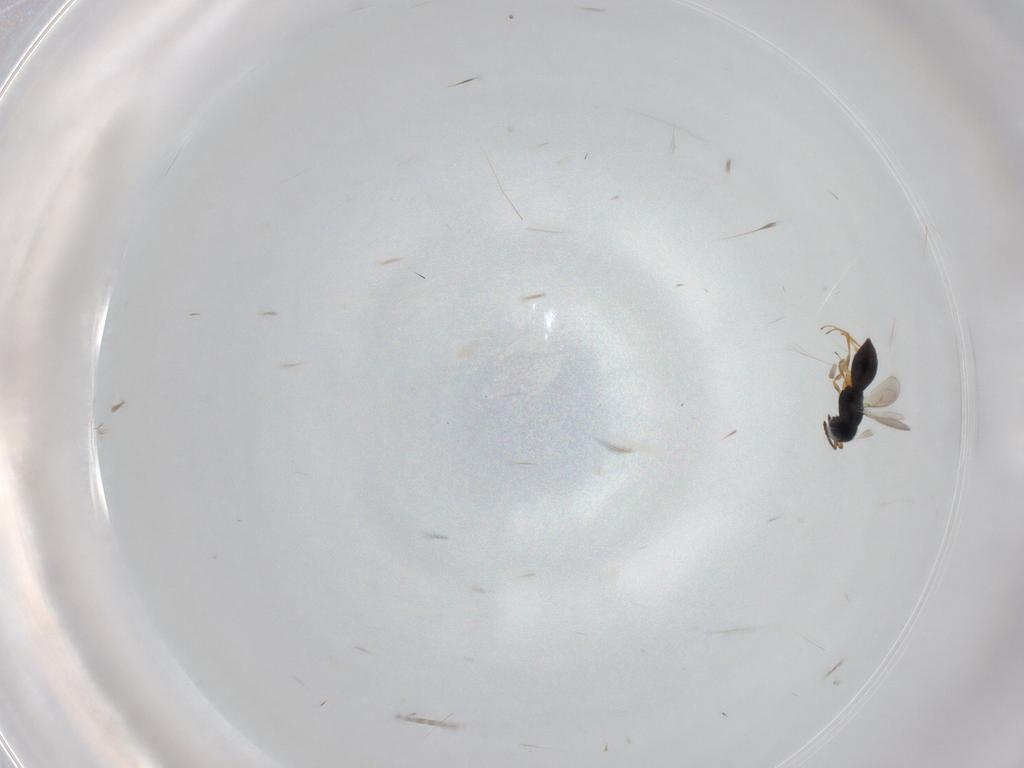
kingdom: Animalia
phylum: Arthropoda
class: Insecta
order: Hymenoptera
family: Scelionidae
